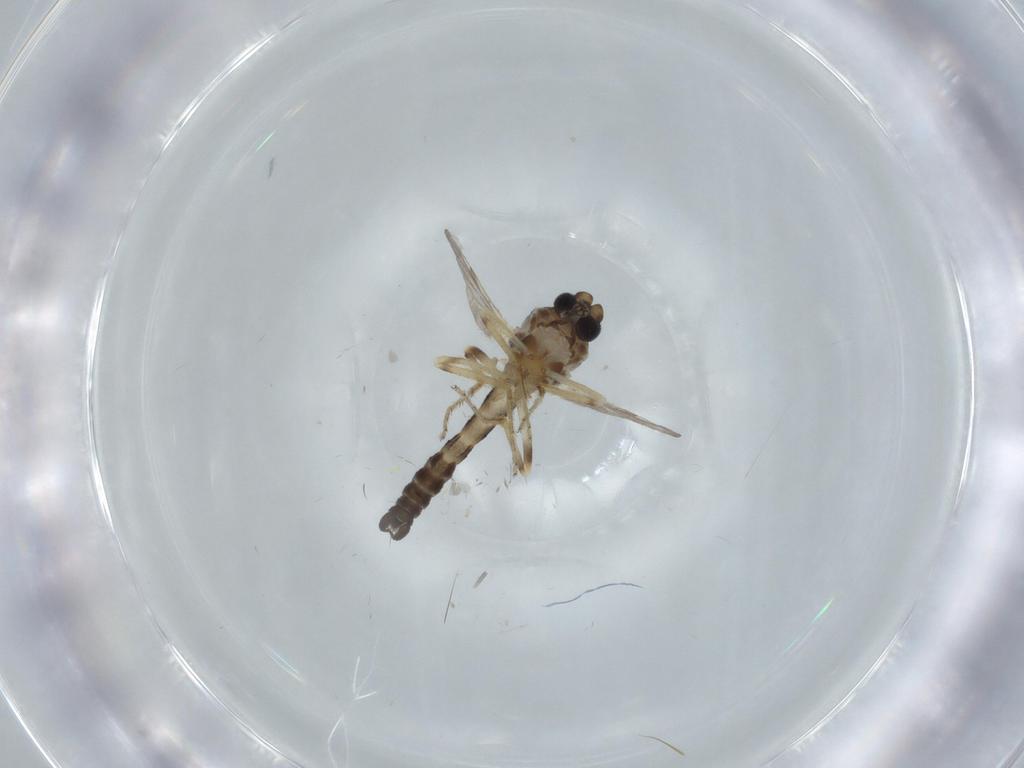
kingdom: Animalia
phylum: Arthropoda
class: Insecta
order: Diptera
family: Ceratopogonidae
